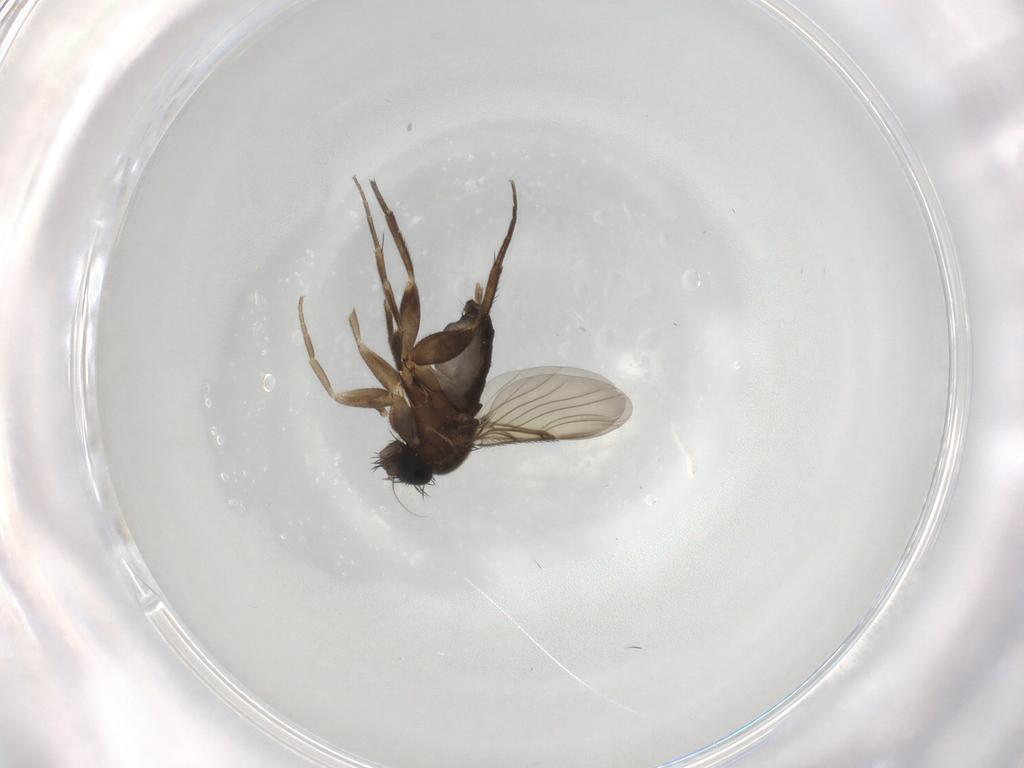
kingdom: Animalia
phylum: Arthropoda
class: Insecta
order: Diptera
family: Phoridae
